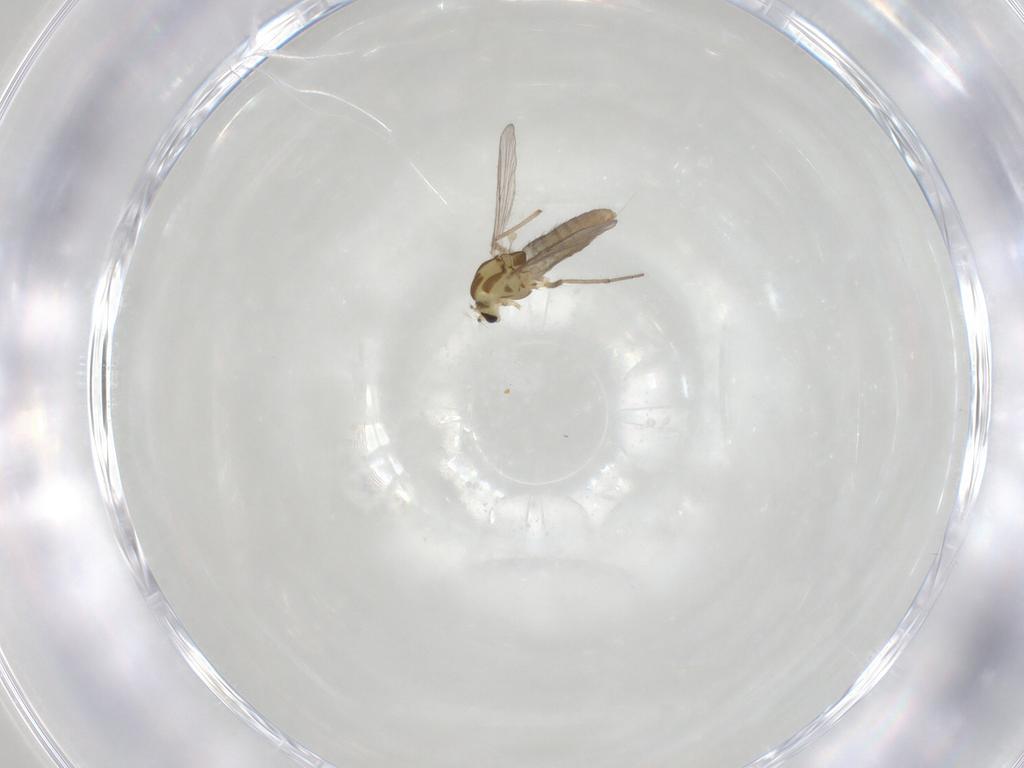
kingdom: Animalia
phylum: Arthropoda
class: Insecta
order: Diptera
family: Chironomidae
